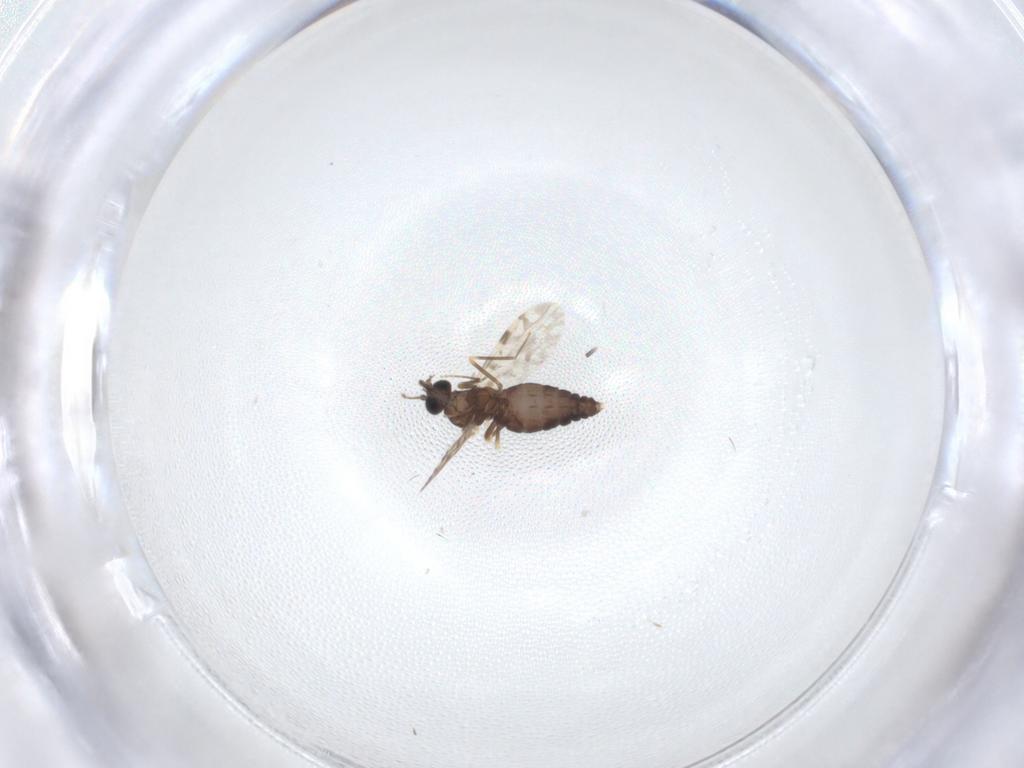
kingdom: Animalia
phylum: Arthropoda
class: Insecta
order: Diptera
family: Ceratopogonidae
